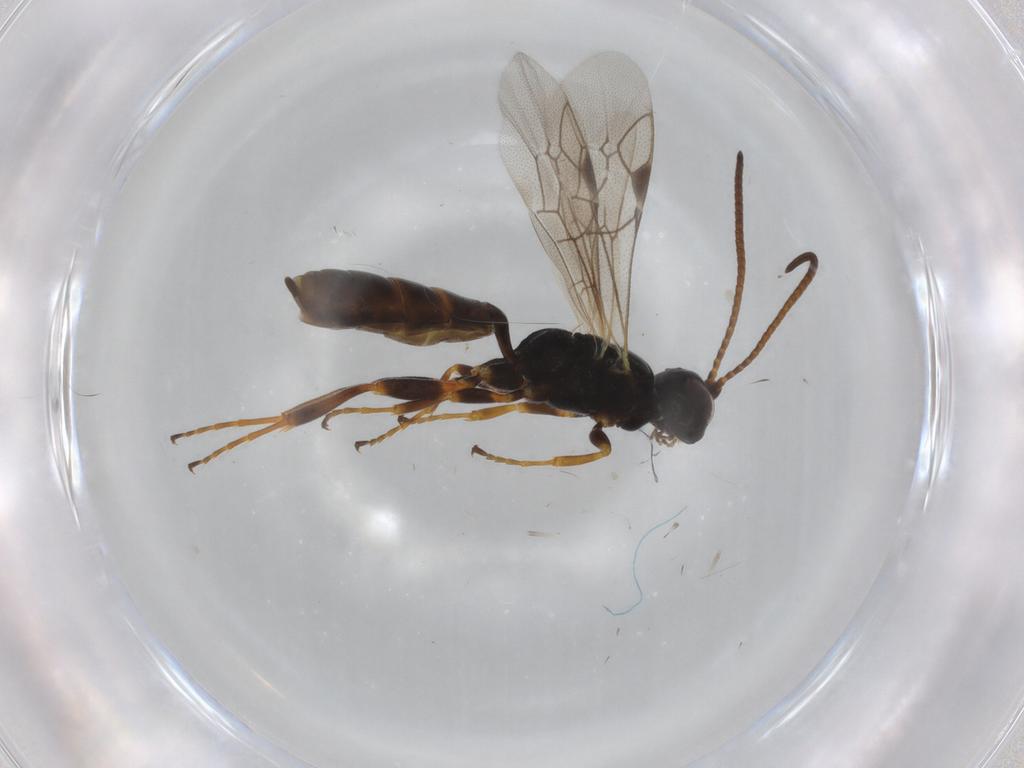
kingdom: Animalia
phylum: Arthropoda
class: Insecta
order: Hymenoptera
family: Ichneumonidae
